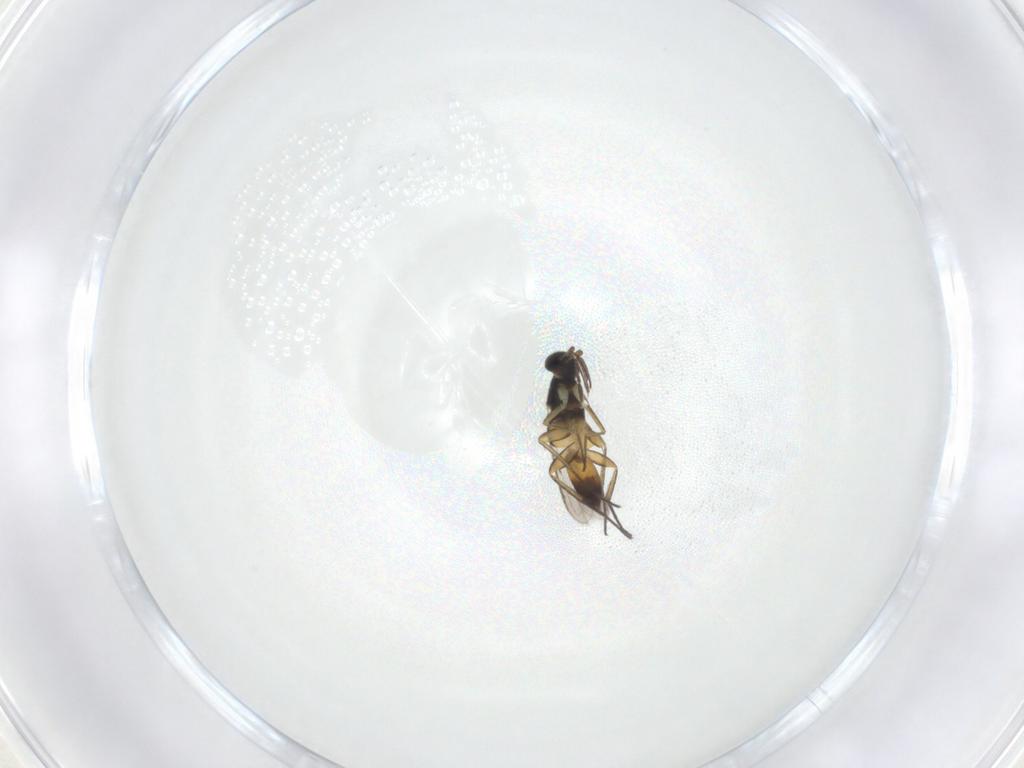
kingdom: Animalia
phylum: Arthropoda
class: Insecta
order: Hymenoptera
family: Eulophidae
